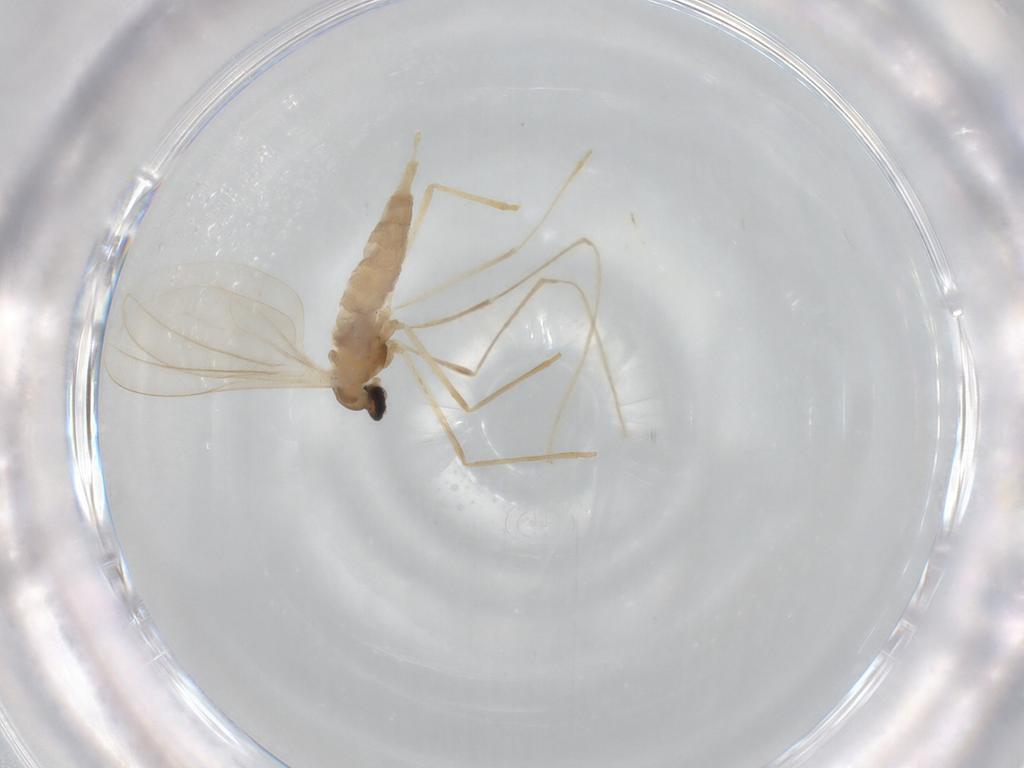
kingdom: Animalia
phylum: Arthropoda
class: Insecta
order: Diptera
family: Cecidomyiidae
